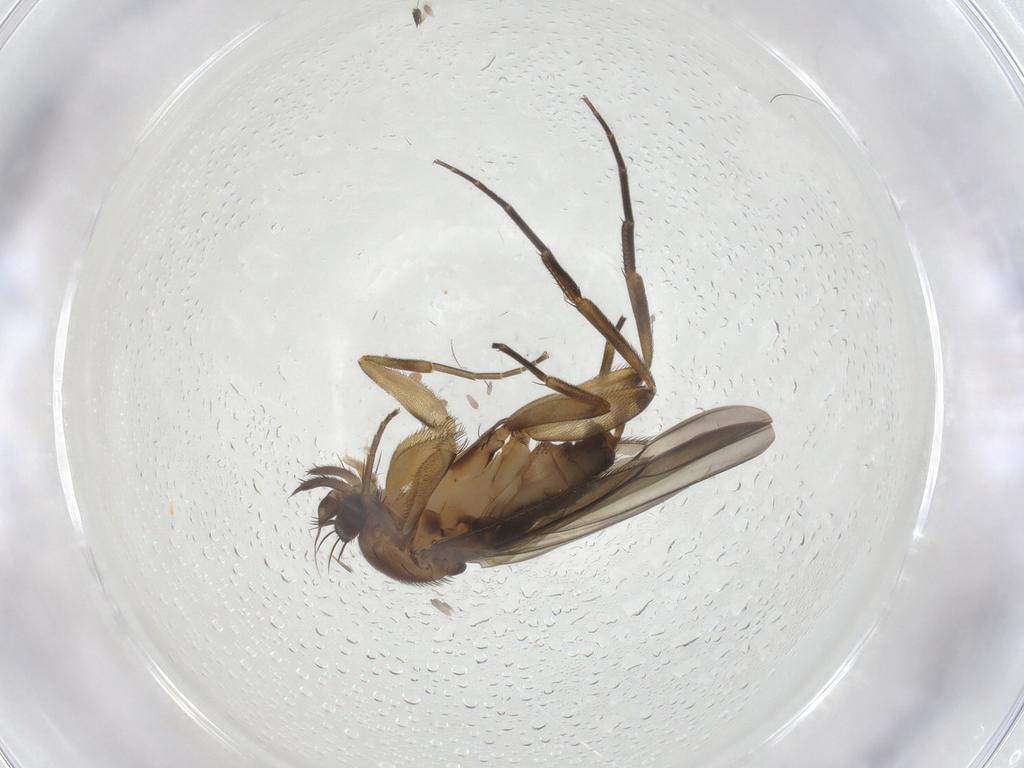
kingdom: Animalia
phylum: Arthropoda
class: Insecta
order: Diptera
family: Phoridae
